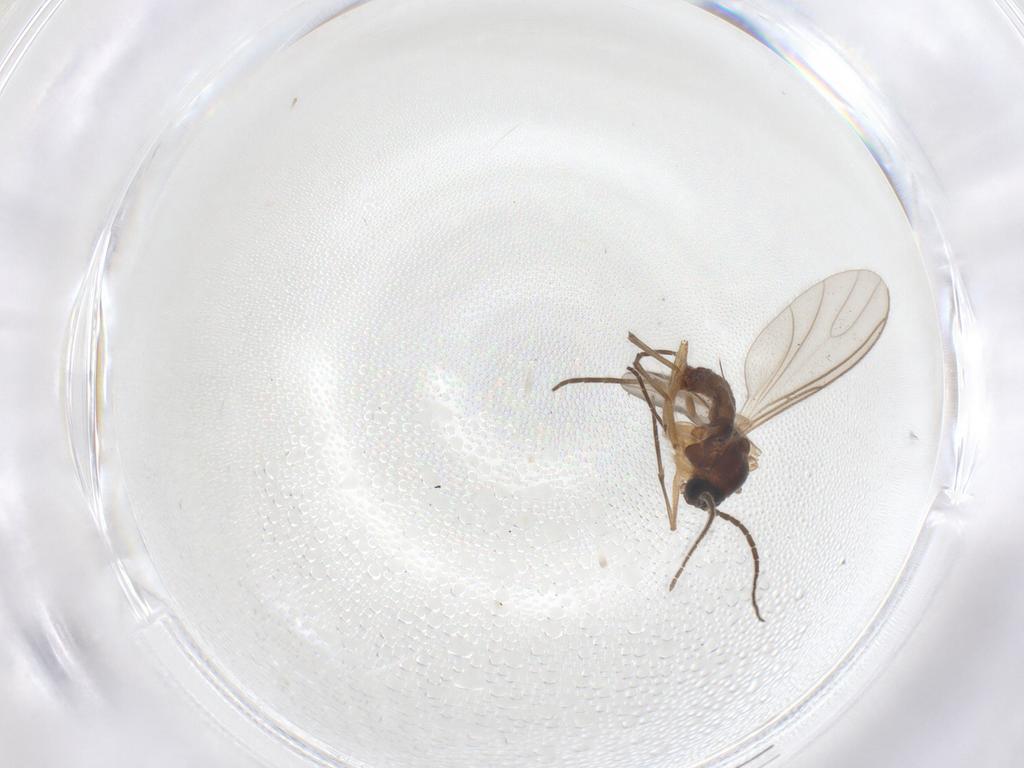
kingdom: Animalia
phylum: Arthropoda
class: Insecta
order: Diptera
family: Sciaridae
